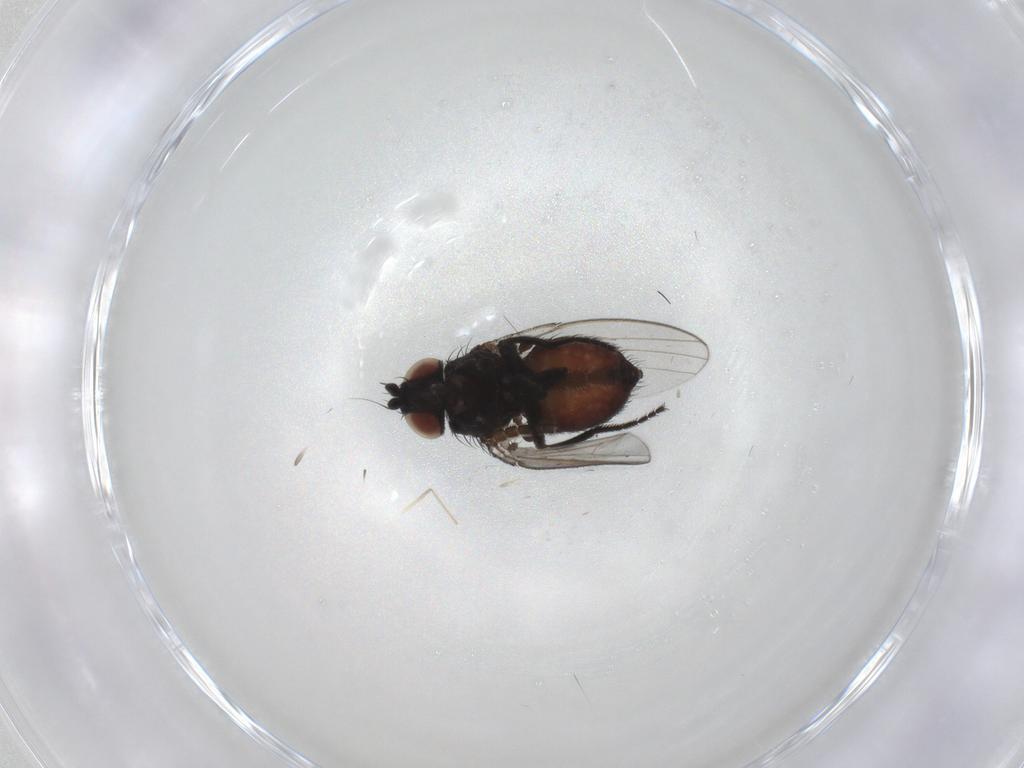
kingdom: Animalia
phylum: Arthropoda
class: Insecta
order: Diptera
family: Milichiidae
